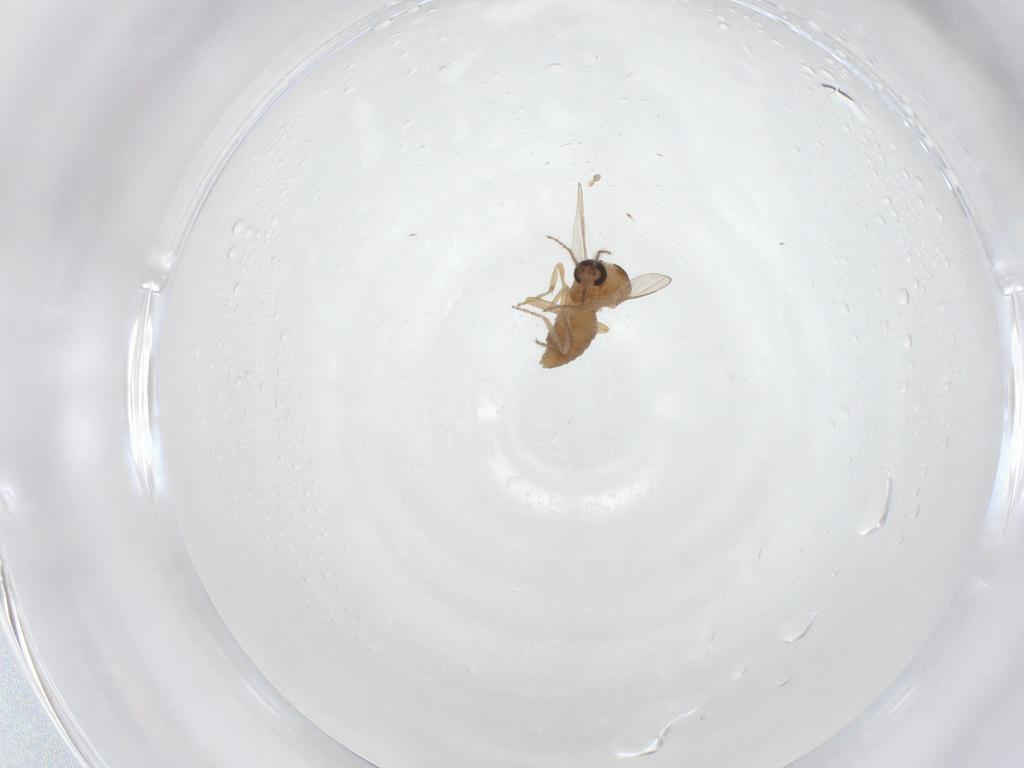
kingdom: Animalia
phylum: Arthropoda
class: Insecta
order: Diptera
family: Ceratopogonidae
